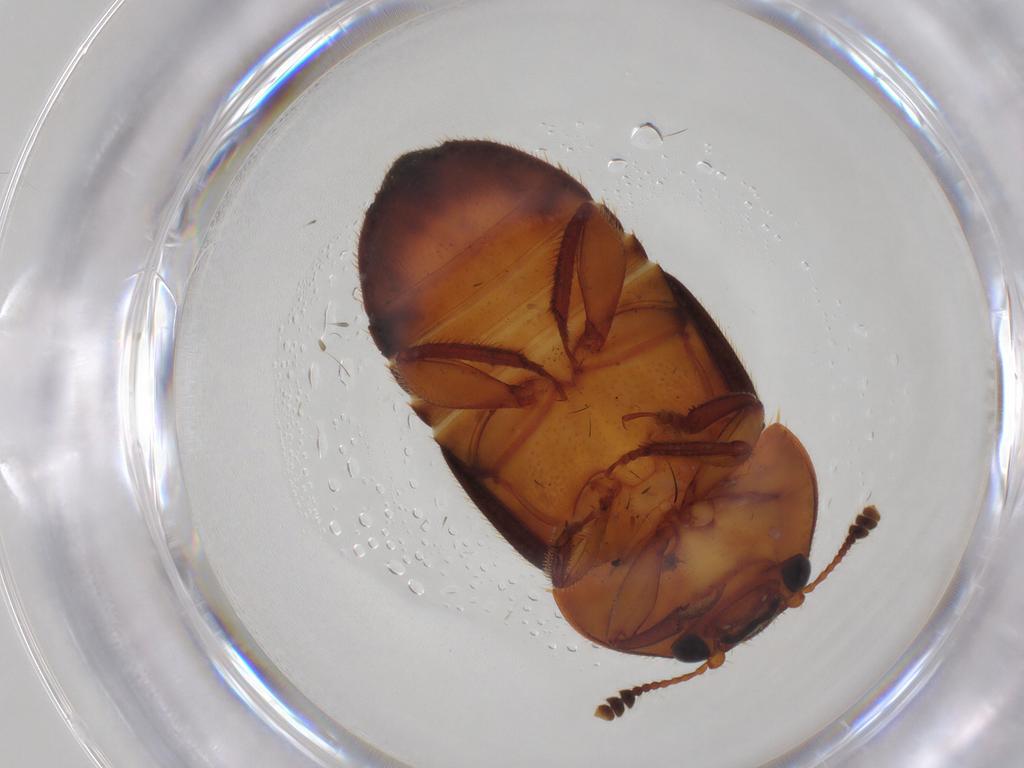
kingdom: Animalia
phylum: Arthropoda
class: Insecta
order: Coleoptera
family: Nitidulidae
